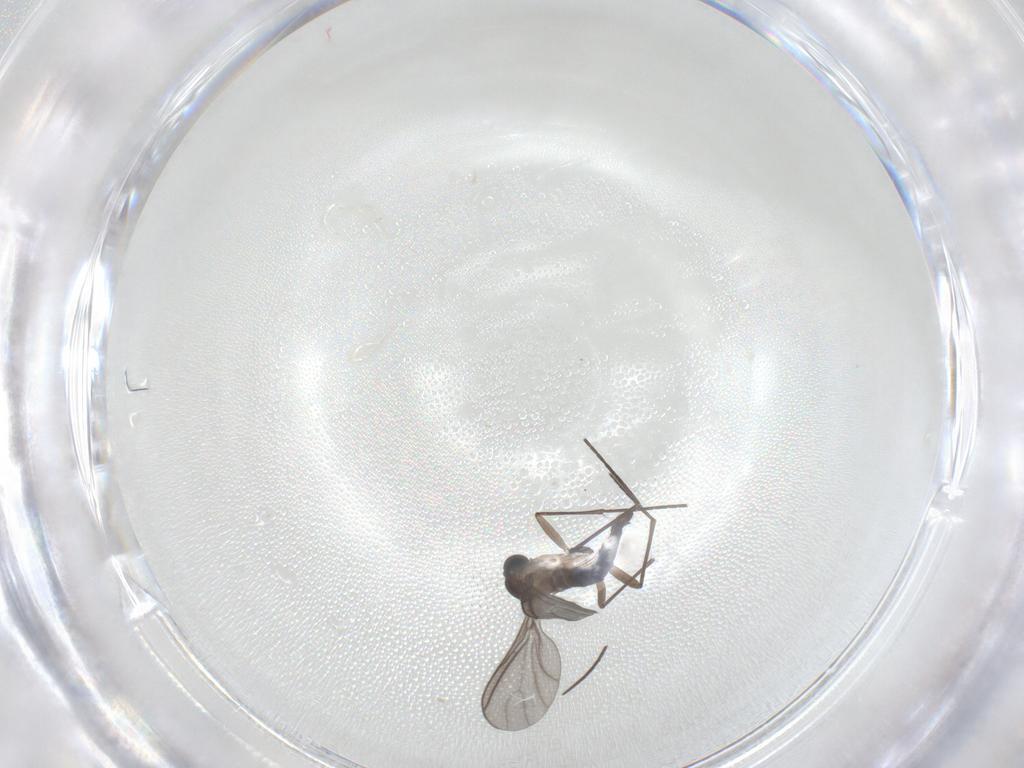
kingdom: Animalia
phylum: Arthropoda
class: Insecta
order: Diptera
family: Sciaridae
